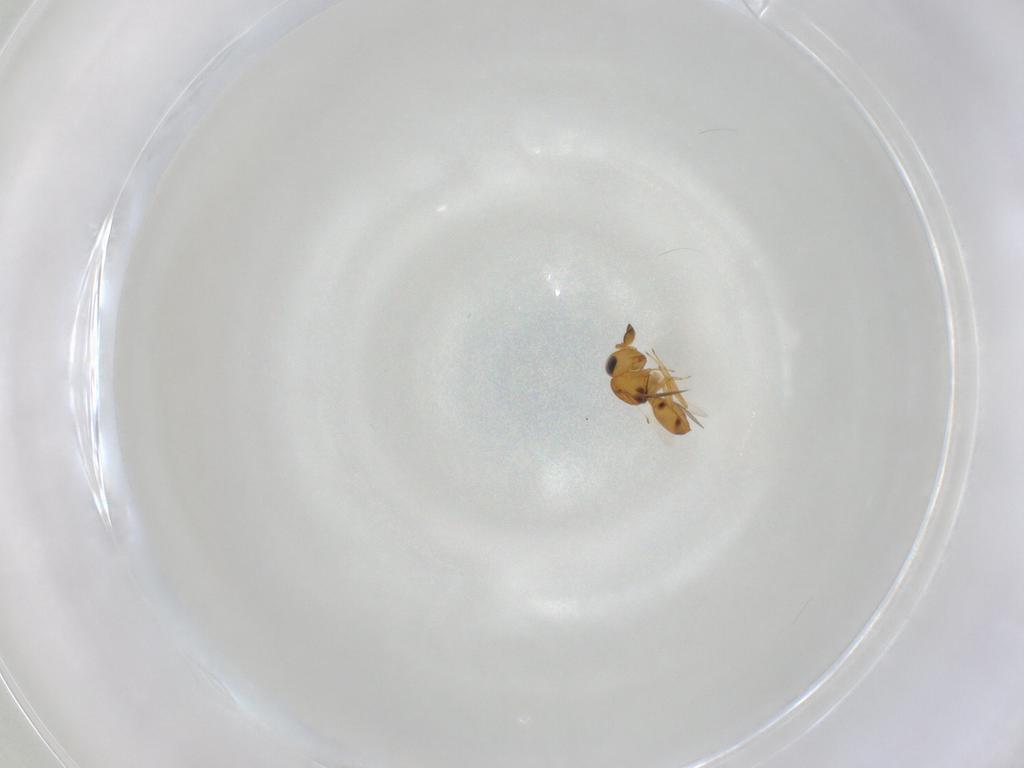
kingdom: Animalia
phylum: Arthropoda
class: Insecta
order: Hymenoptera
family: Scelionidae
